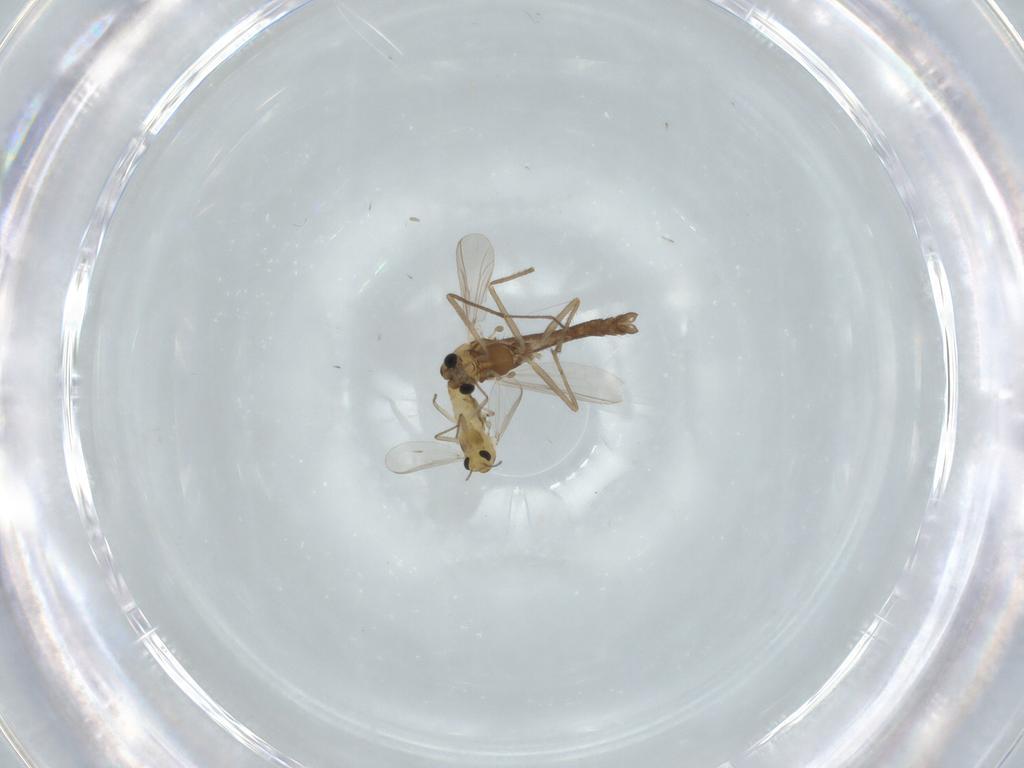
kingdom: Animalia
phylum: Arthropoda
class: Insecta
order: Diptera
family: Chironomidae
